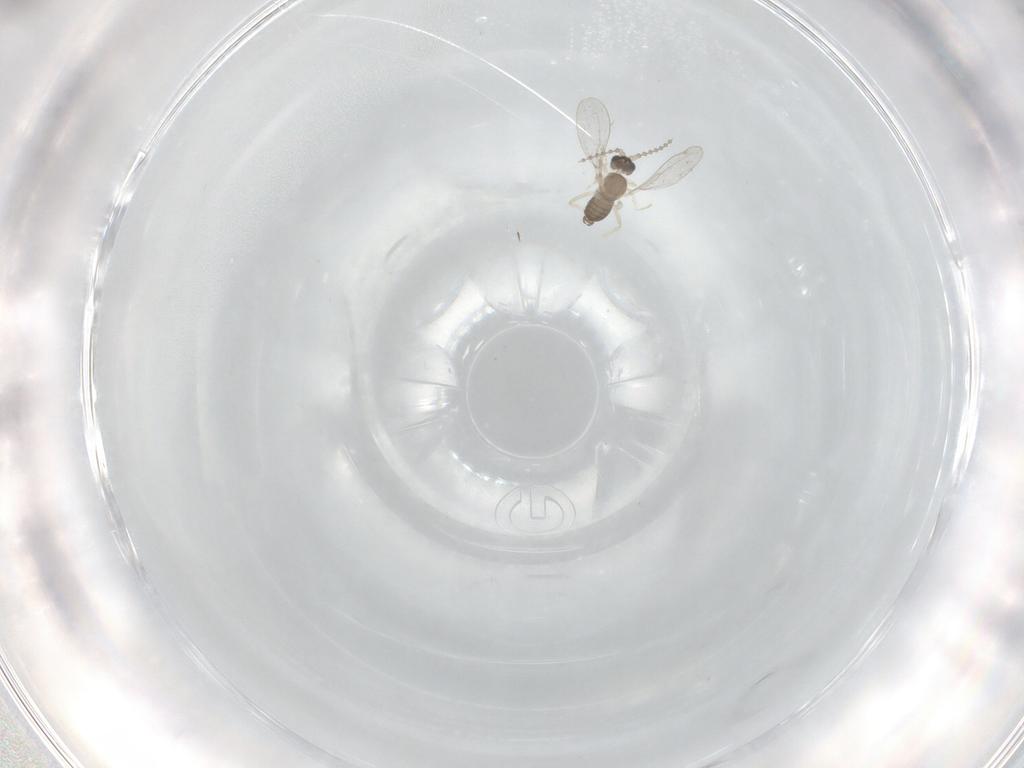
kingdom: Animalia
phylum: Arthropoda
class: Insecta
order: Diptera
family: Cecidomyiidae
